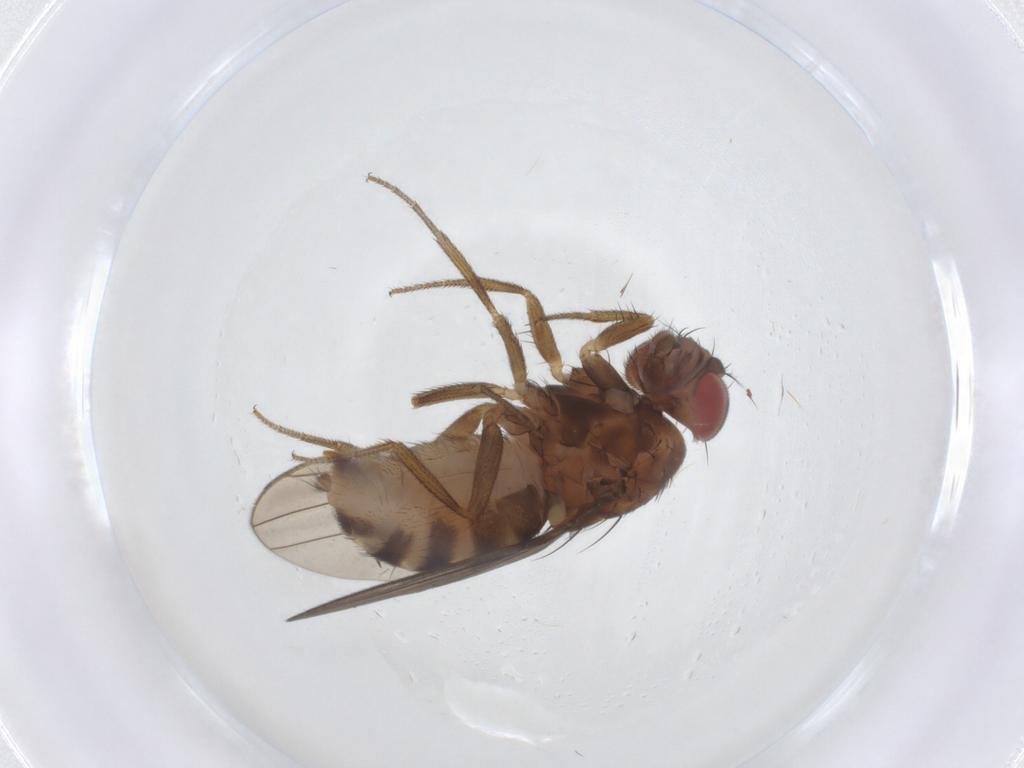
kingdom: Animalia
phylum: Arthropoda
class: Insecta
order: Diptera
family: Drosophilidae
